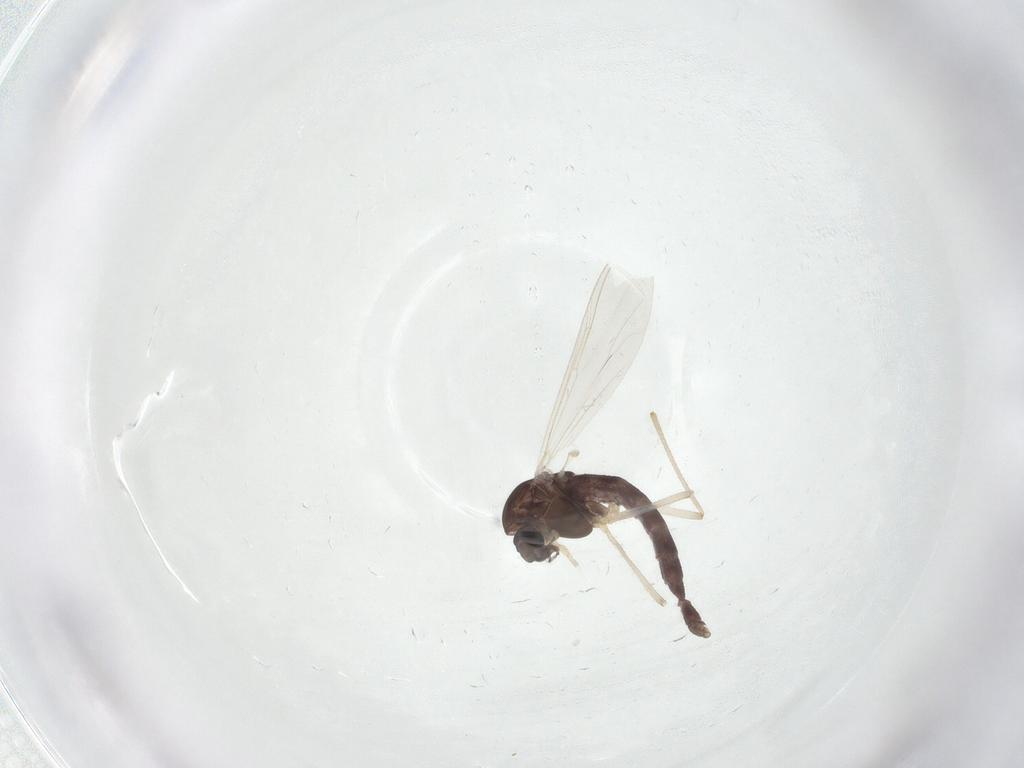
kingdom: Animalia
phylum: Arthropoda
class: Insecta
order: Diptera
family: Chironomidae
